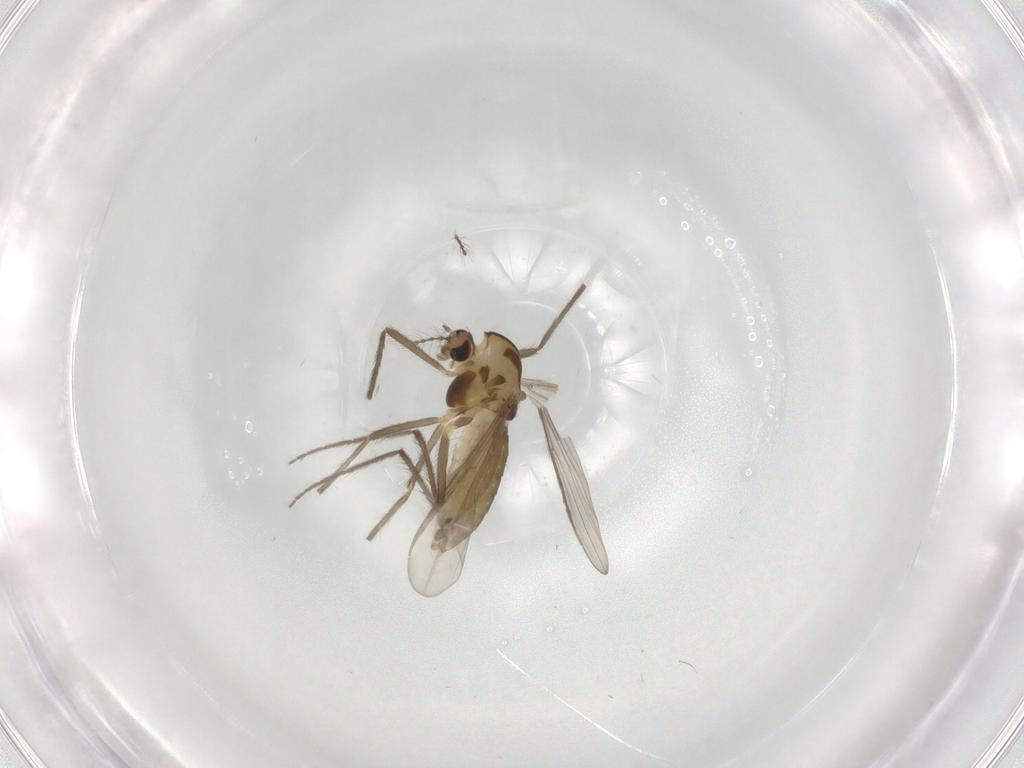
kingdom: Animalia
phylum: Arthropoda
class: Insecta
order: Diptera
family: Chironomidae
